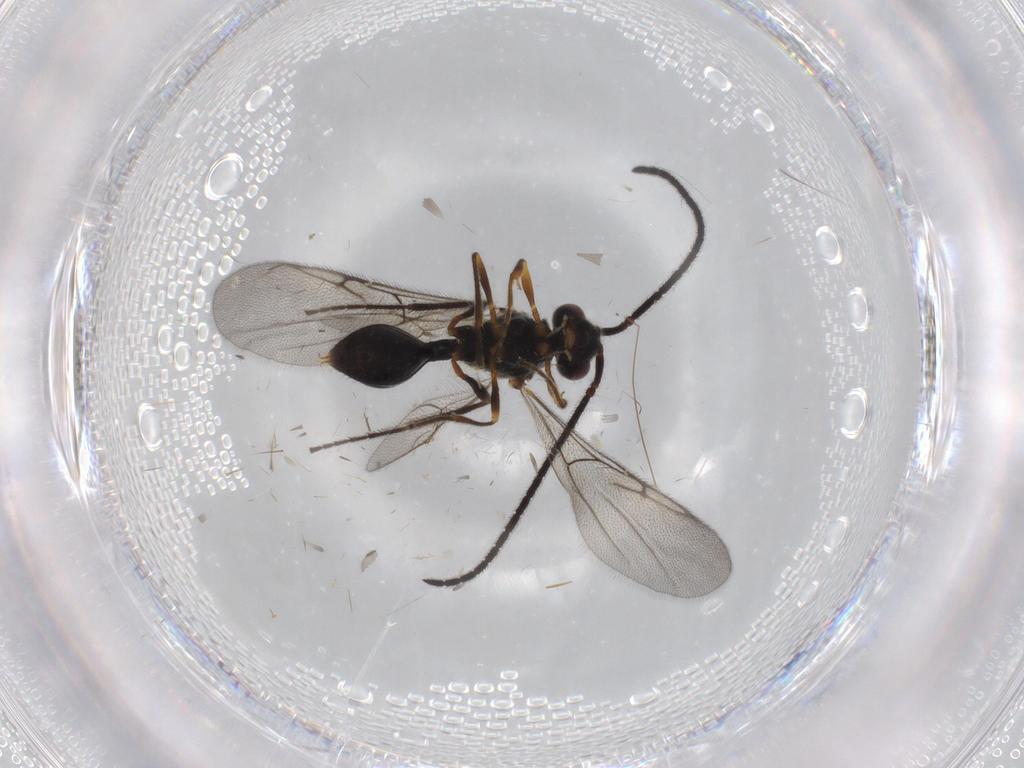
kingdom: Animalia
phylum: Arthropoda
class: Insecta
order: Hymenoptera
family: Diapriidae
